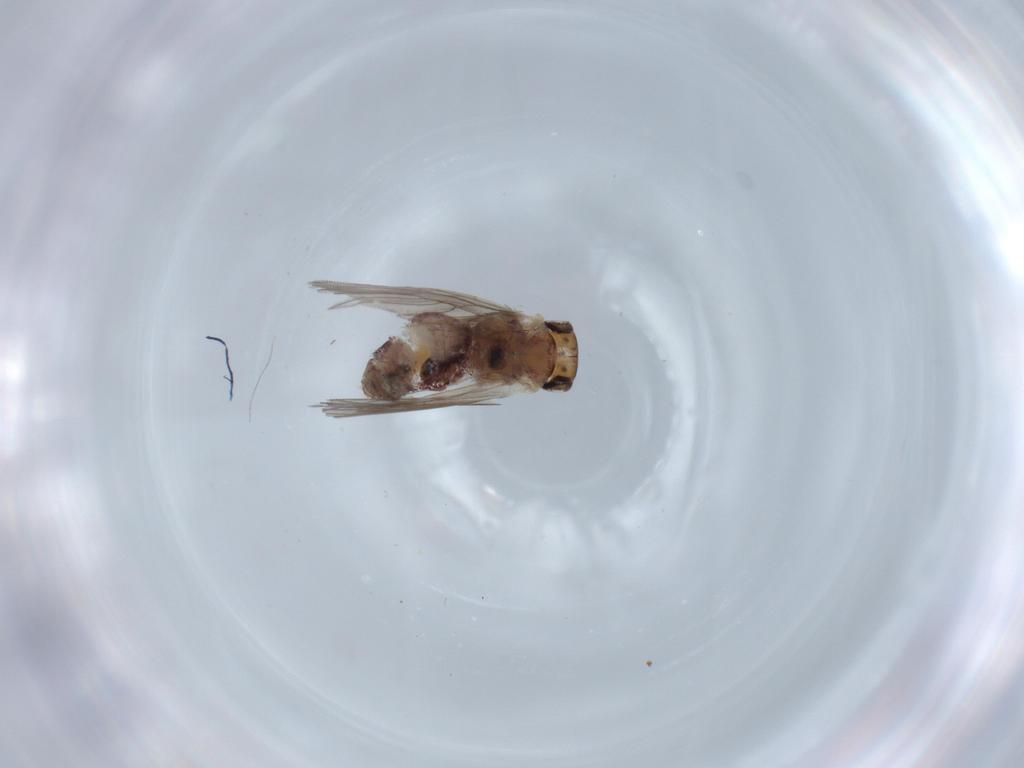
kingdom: Animalia
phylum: Arthropoda
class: Insecta
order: Psocodea
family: Lepidopsocidae
